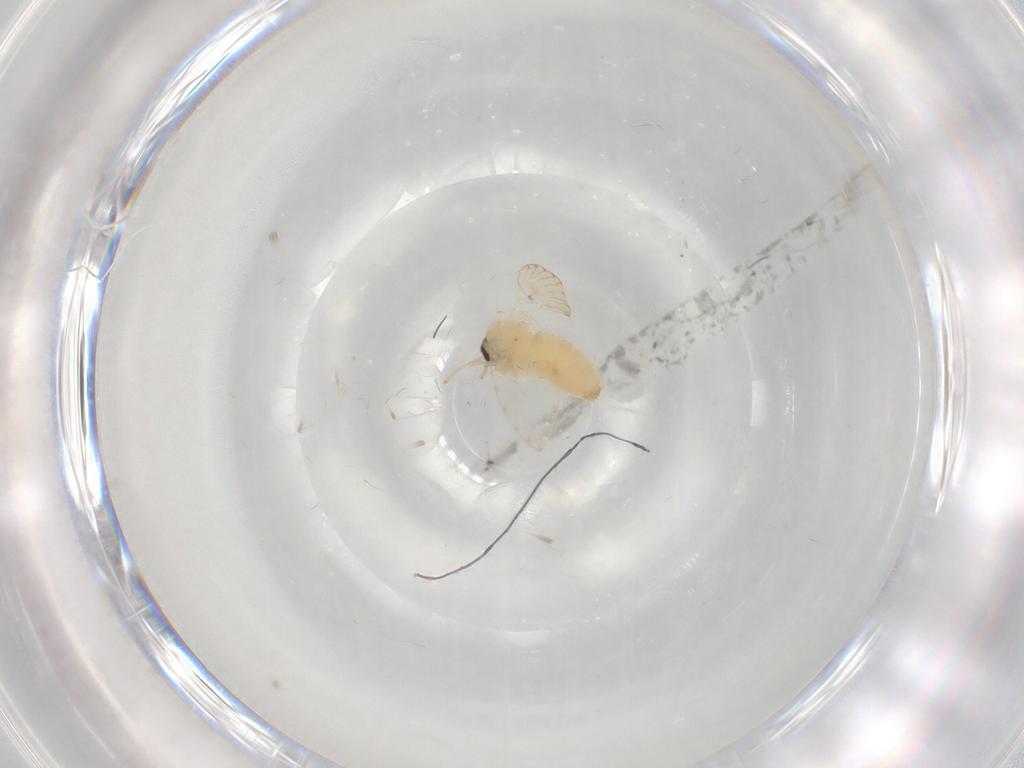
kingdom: Animalia
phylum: Arthropoda
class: Insecta
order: Diptera
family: Psychodidae
